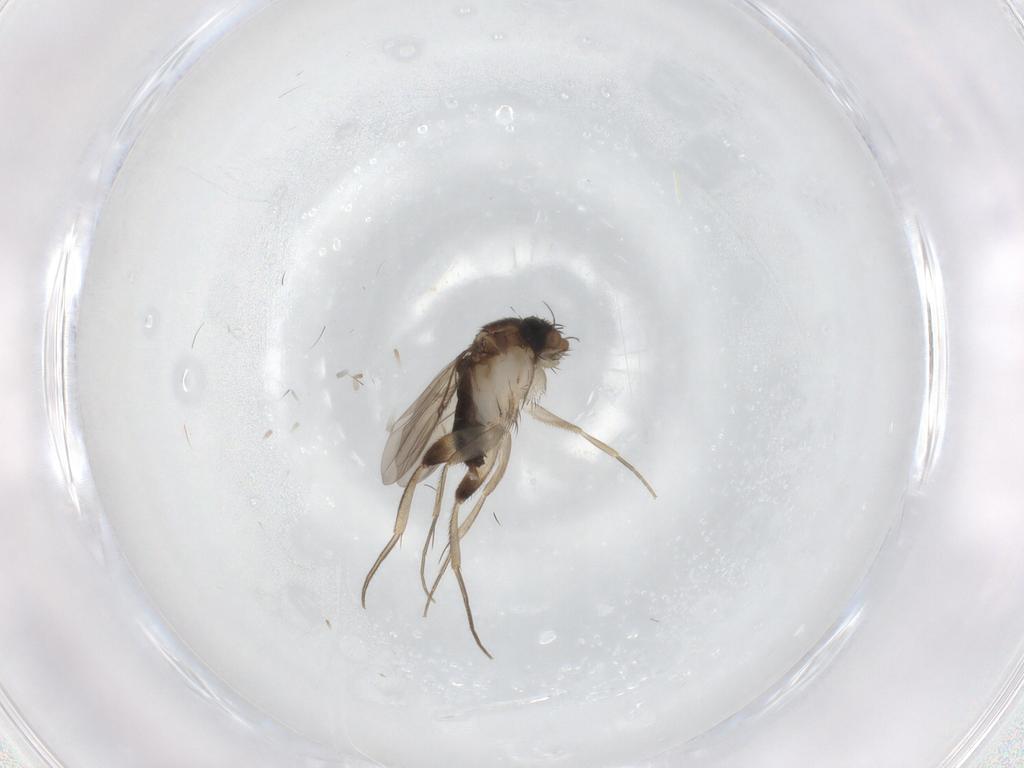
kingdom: Animalia
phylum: Arthropoda
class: Insecta
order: Diptera
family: Phoridae
